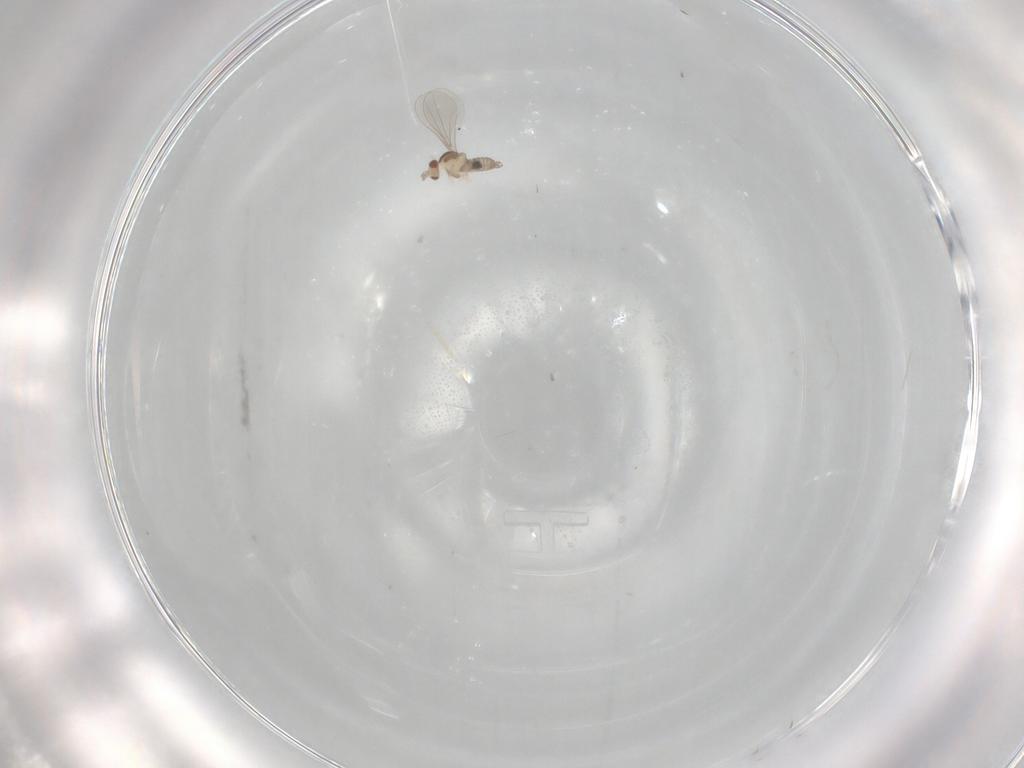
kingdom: Animalia
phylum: Arthropoda
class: Insecta
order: Diptera
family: Sciaridae
